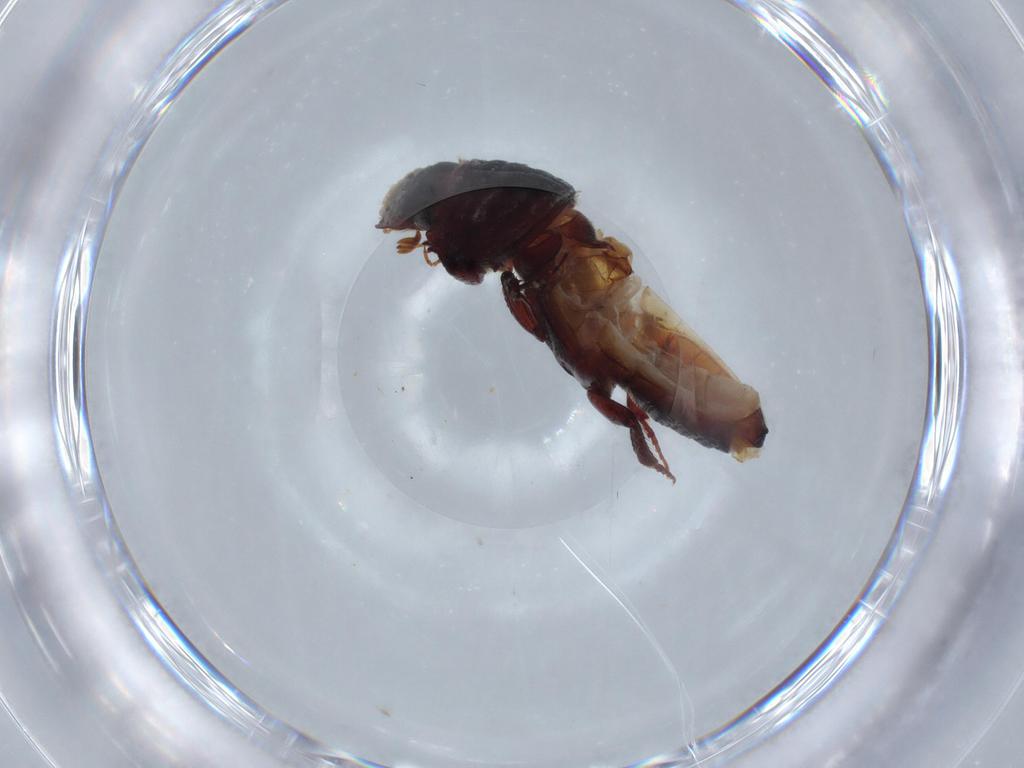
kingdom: Animalia
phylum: Arthropoda
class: Insecta
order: Coleoptera
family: Scarabaeidae
